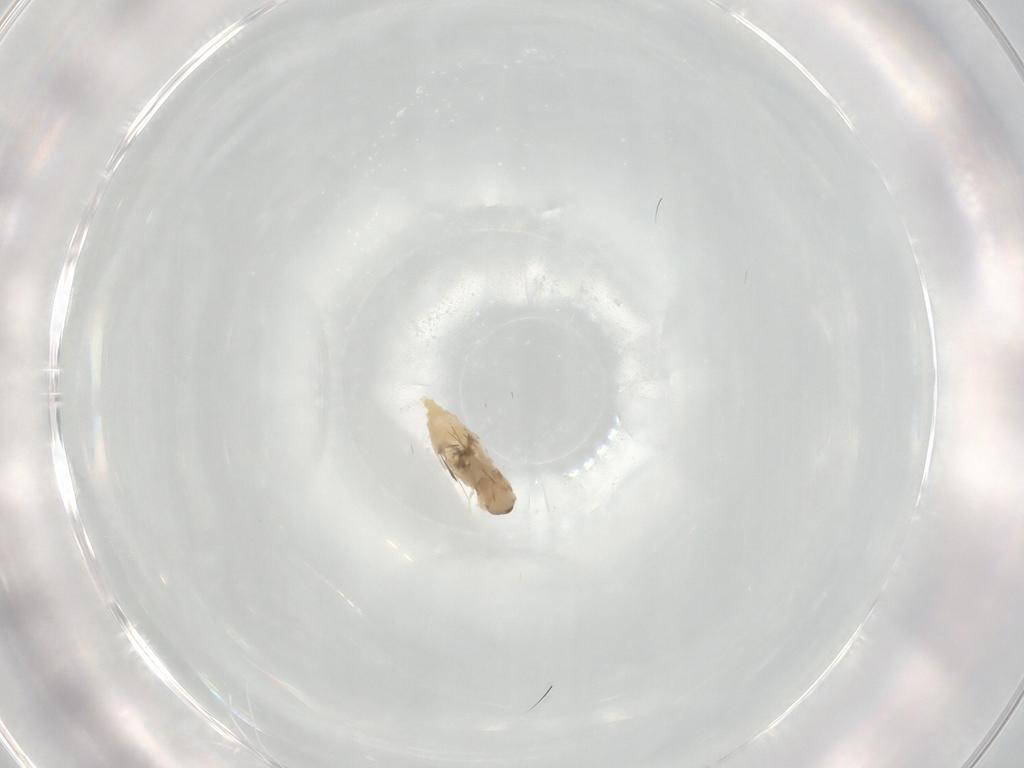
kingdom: Animalia
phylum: Arthropoda
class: Insecta
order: Diptera
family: Cecidomyiidae
